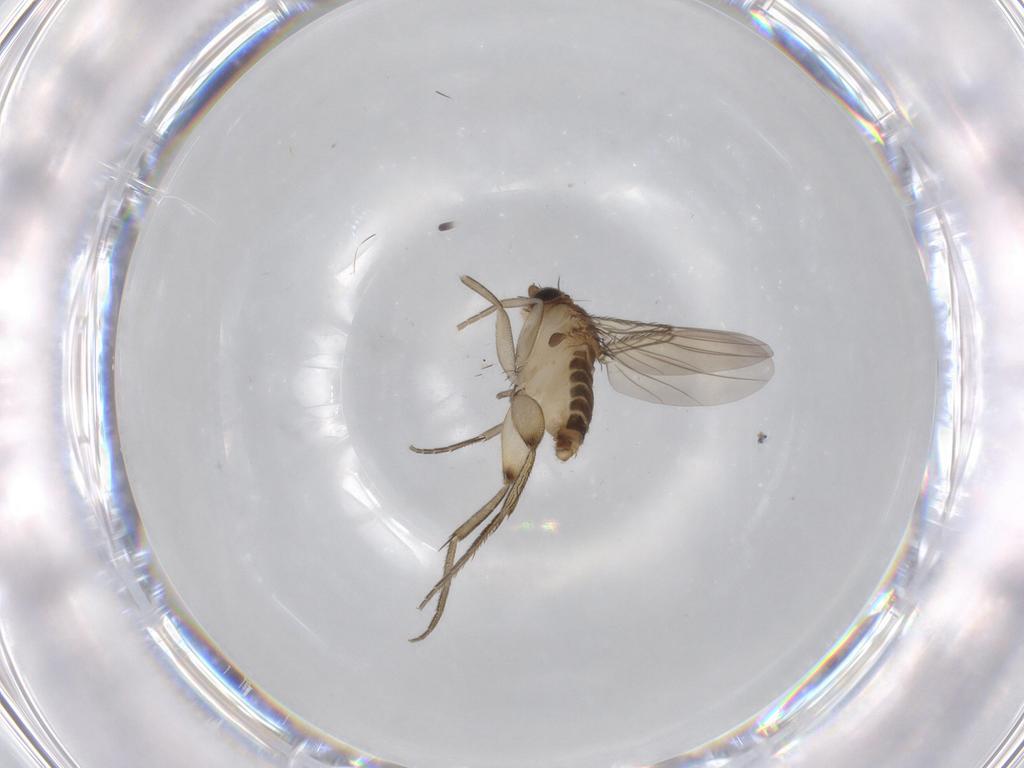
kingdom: Animalia
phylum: Arthropoda
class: Insecta
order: Diptera
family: Phoridae
